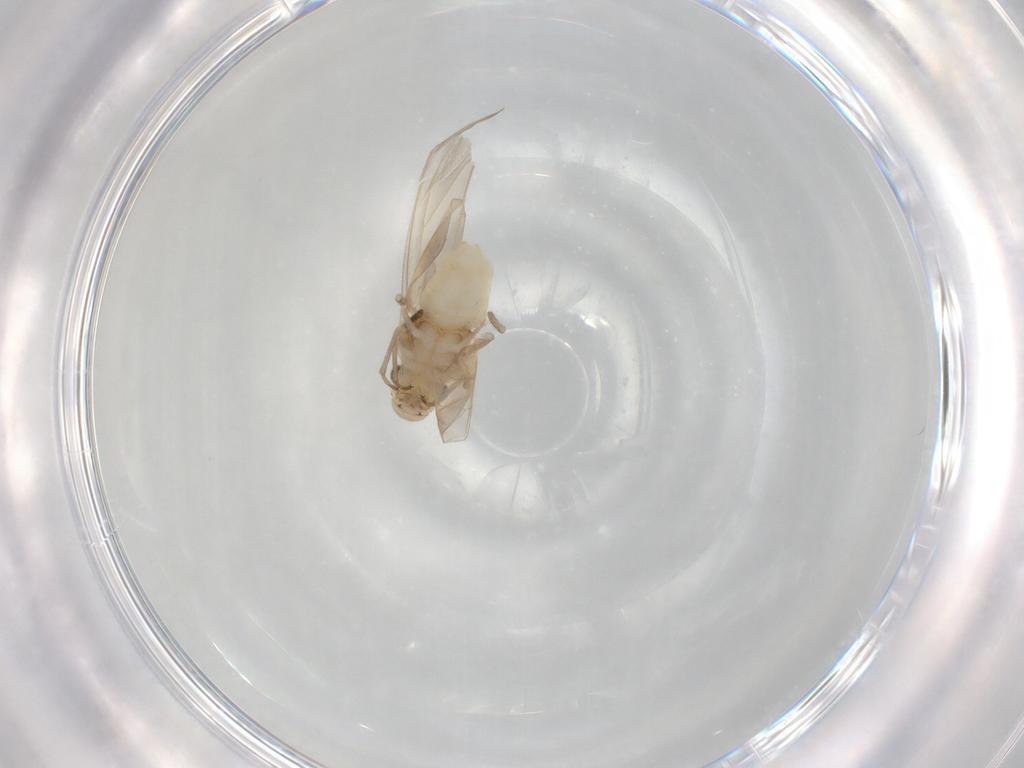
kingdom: Animalia
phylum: Arthropoda
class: Insecta
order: Psocodea
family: Caeciliusidae
